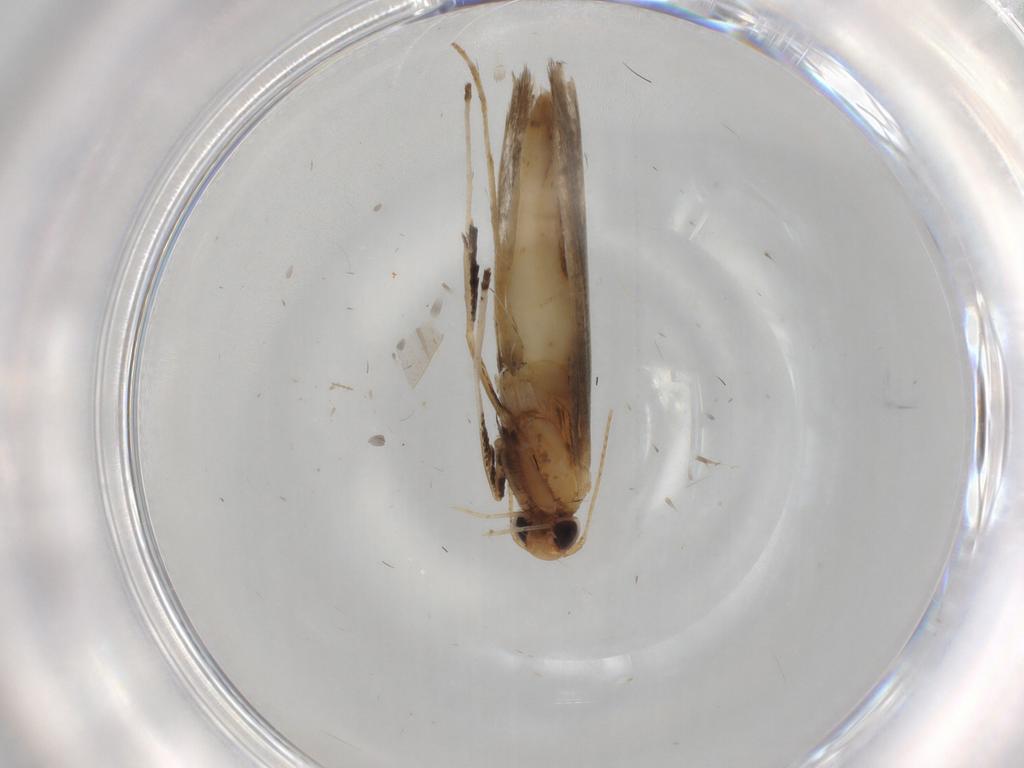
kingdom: Animalia
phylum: Arthropoda
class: Insecta
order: Lepidoptera
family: Gracillariidae
